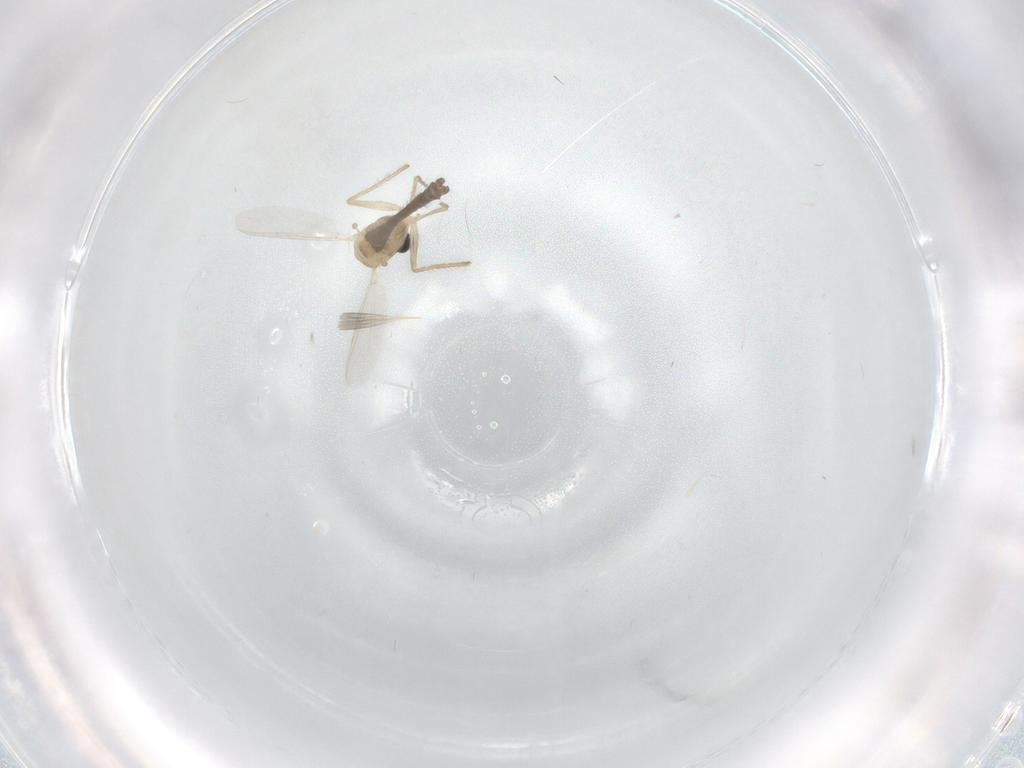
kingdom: Animalia
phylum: Arthropoda
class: Insecta
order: Diptera
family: Chironomidae
